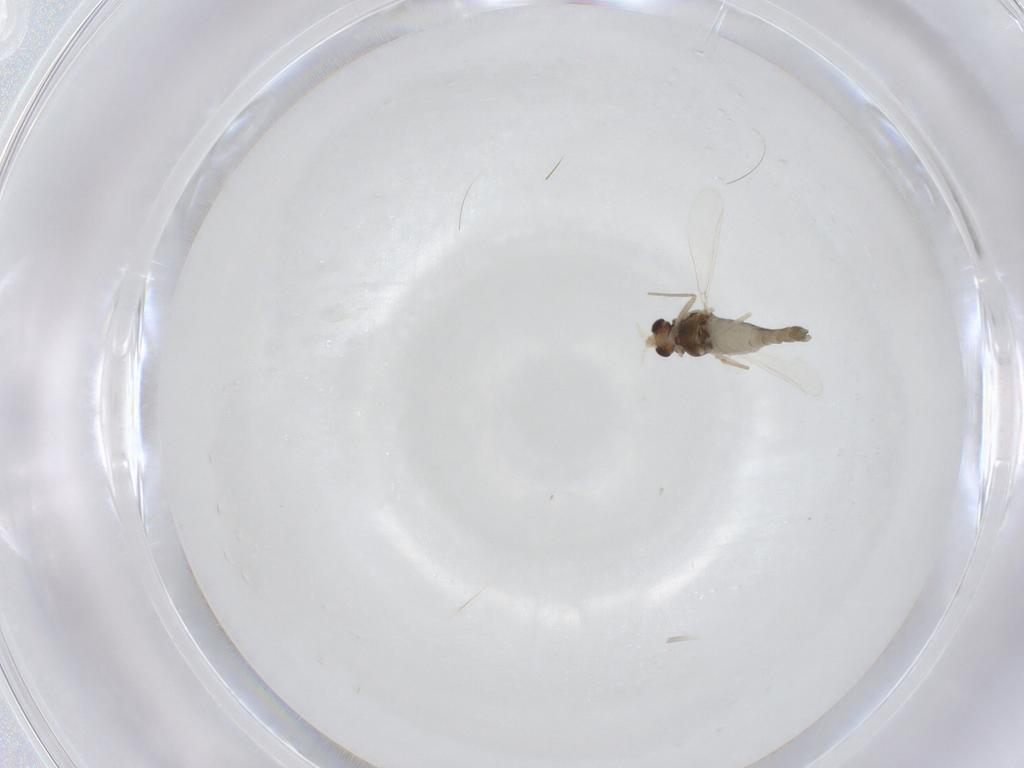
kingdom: Animalia
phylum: Arthropoda
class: Insecta
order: Diptera
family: Chironomidae
